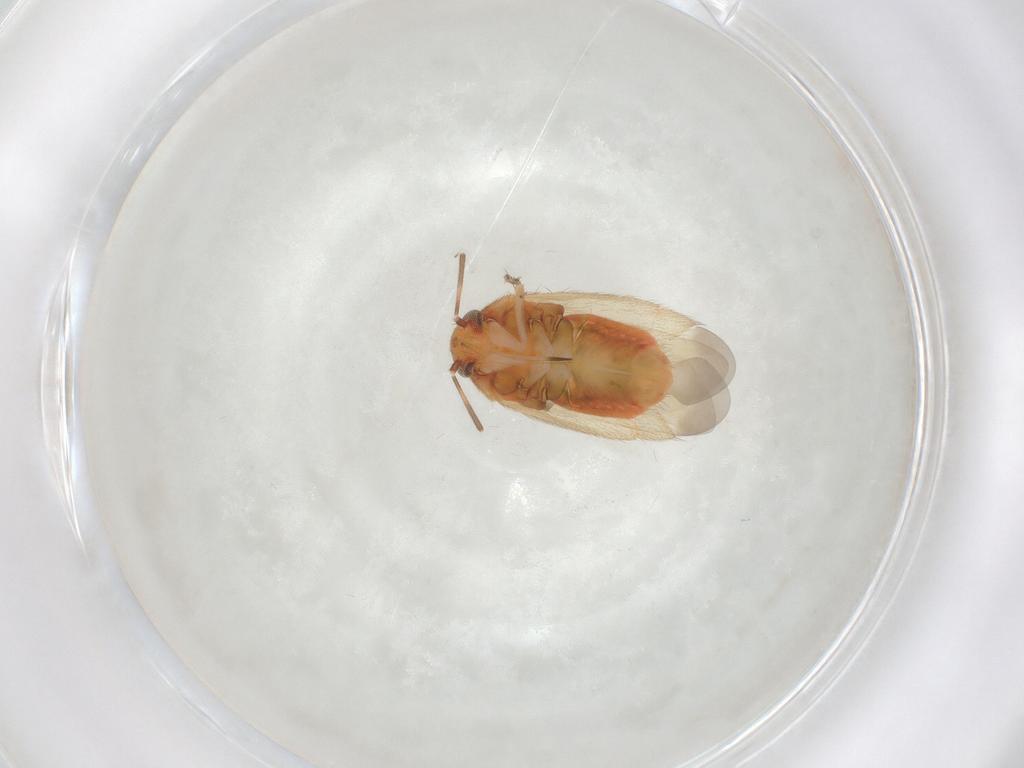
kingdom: Animalia
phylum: Arthropoda
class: Insecta
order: Hemiptera
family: Miridae
